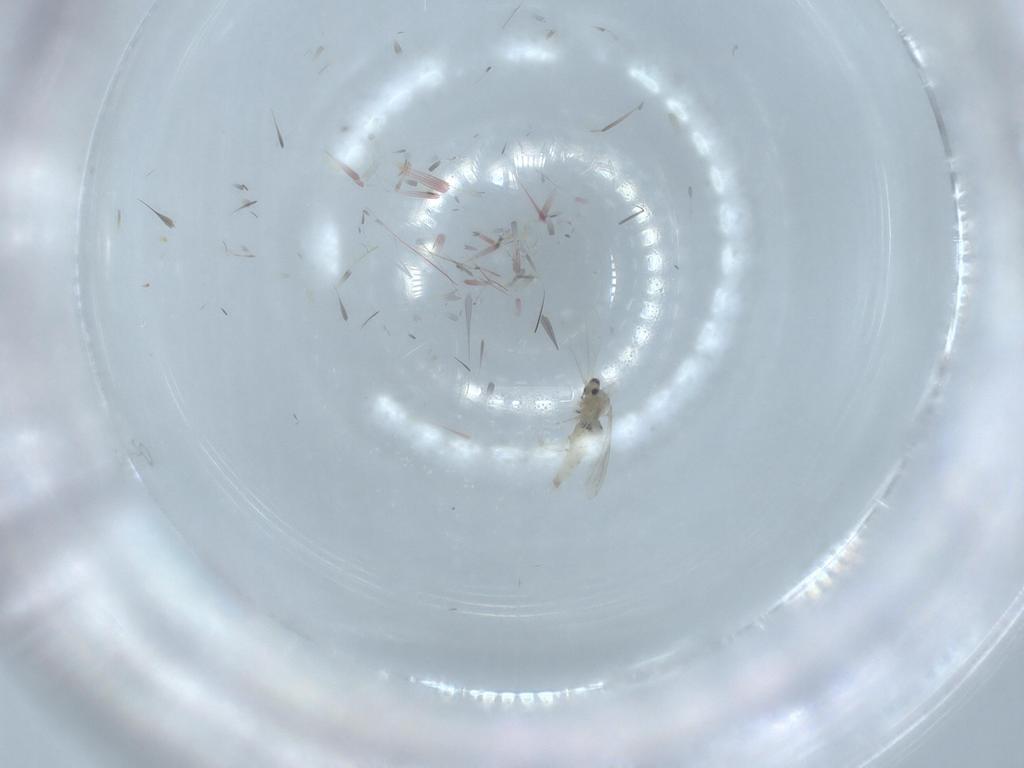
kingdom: Animalia
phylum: Arthropoda
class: Insecta
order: Diptera
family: Cecidomyiidae
